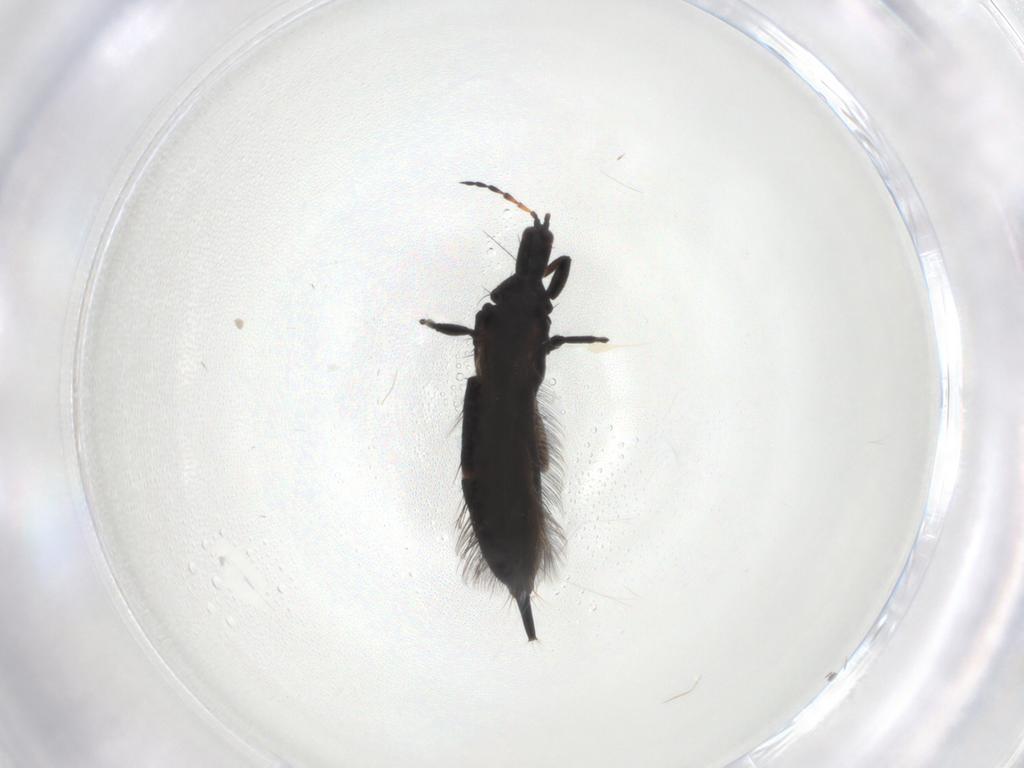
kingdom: Animalia
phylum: Arthropoda
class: Insecta
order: Thysanoptera
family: Phlaeothripidae
